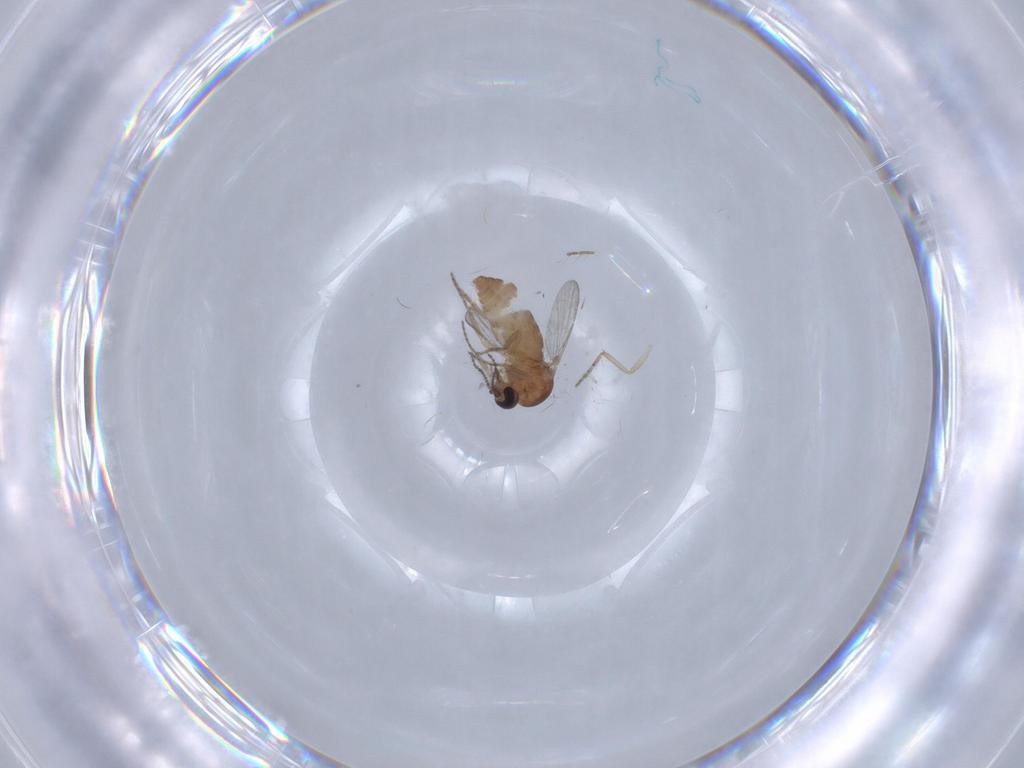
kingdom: Animalia
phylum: Arthropoda
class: Insecta
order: Diptera
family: Ceratopogonidae
